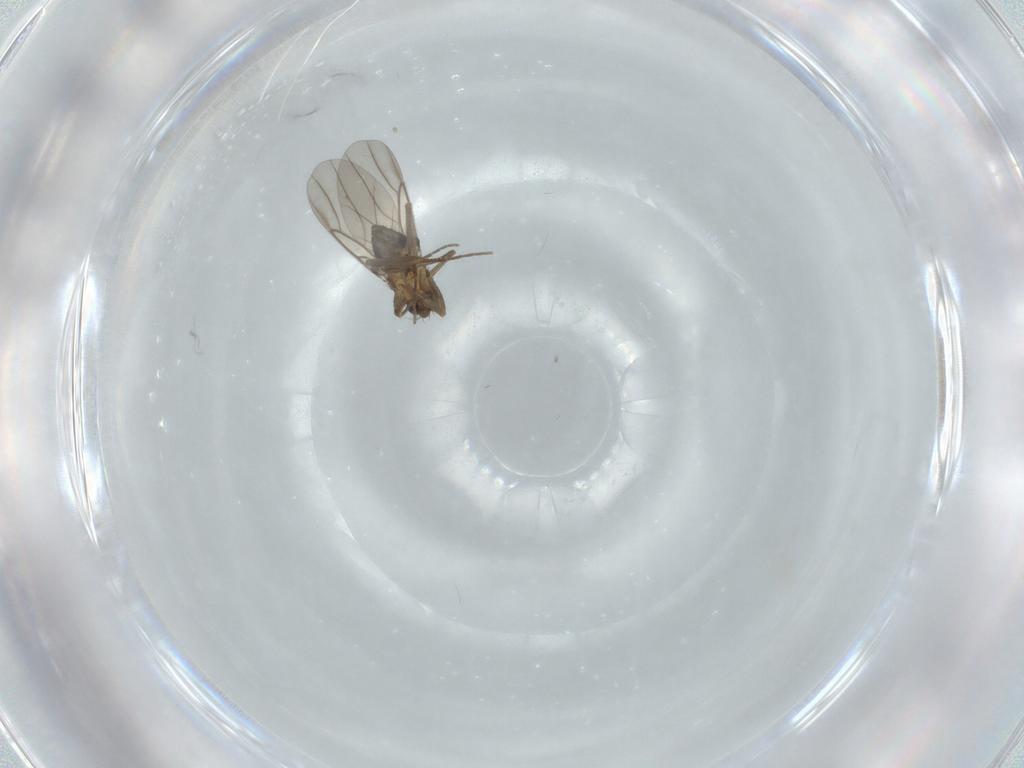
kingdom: Animalia
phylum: Arthropoda
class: Insecta
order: Diptera
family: Phoridae
